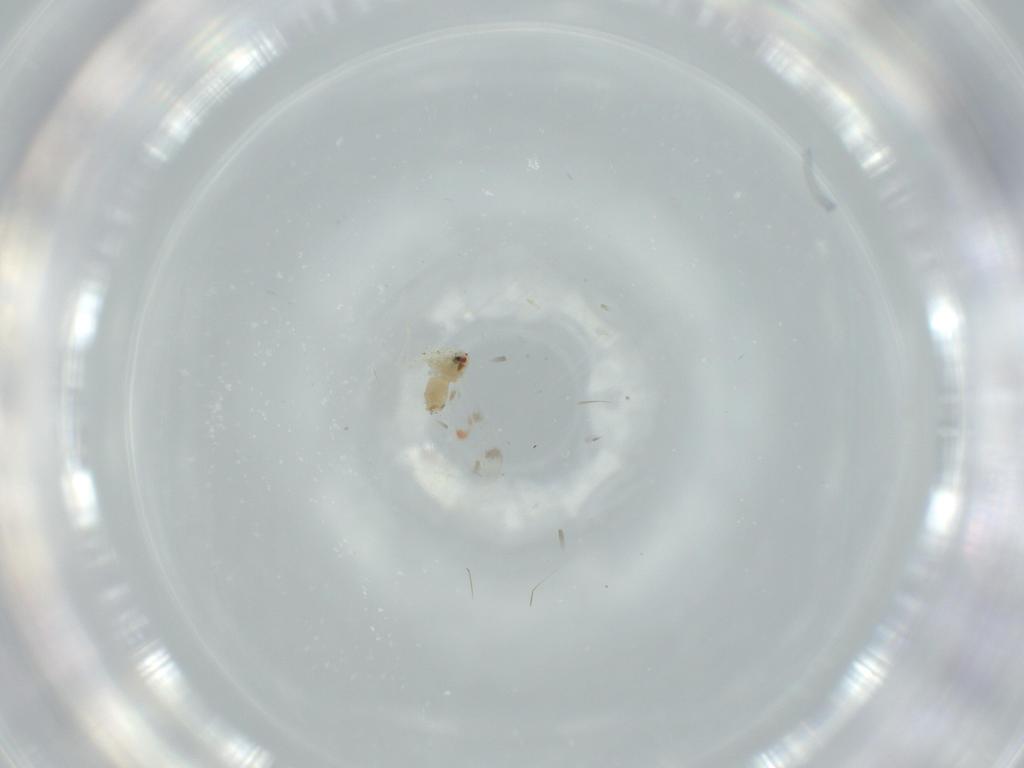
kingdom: Animalia
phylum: Arthropoda
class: Insecta
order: Hemiptera
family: Aleyrodidae
